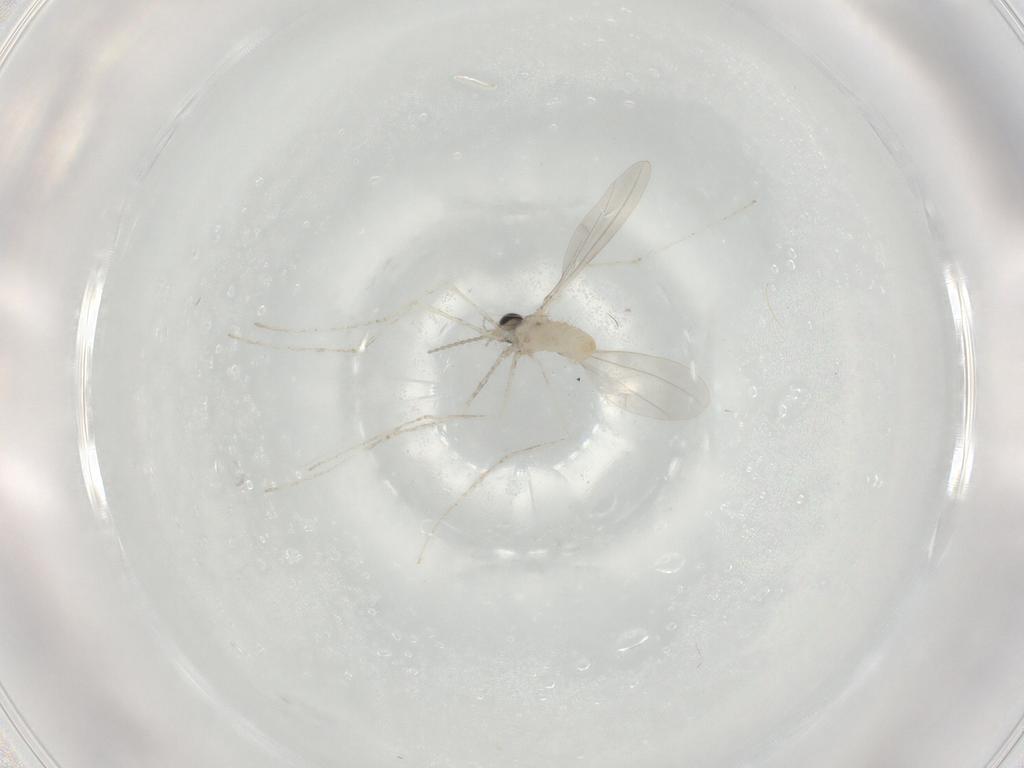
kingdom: Animalia
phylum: Arthropoda
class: Insecta
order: Diptera
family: Cecidomyiidae
